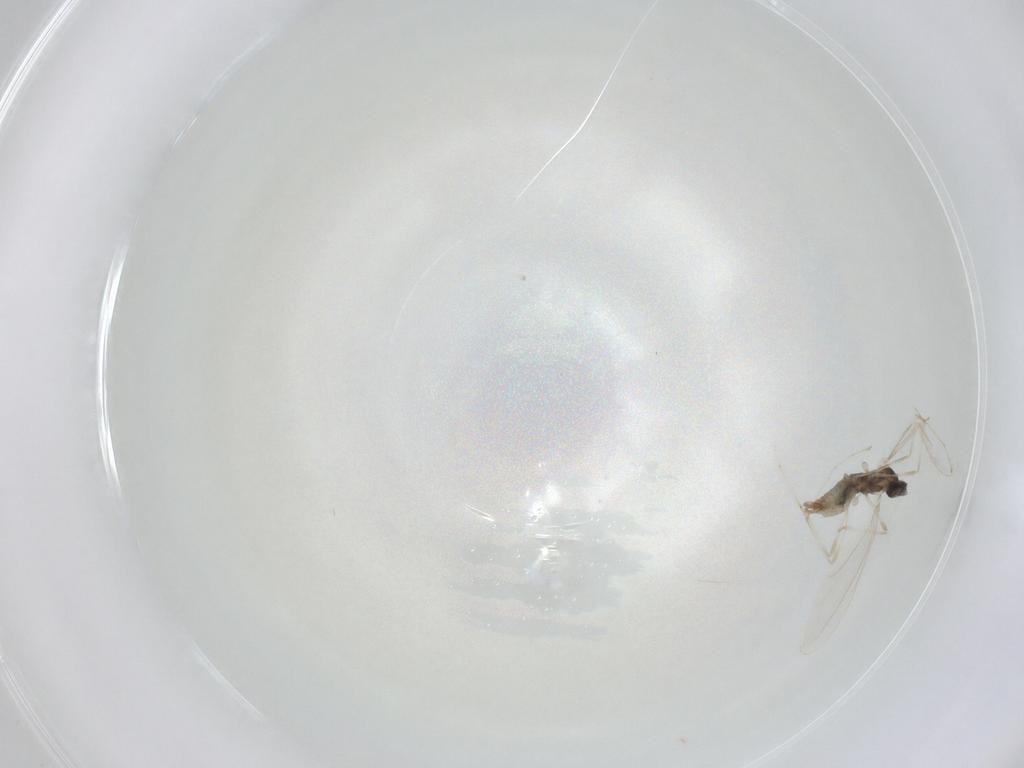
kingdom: Animalia
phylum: Arthropoda
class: Insecta
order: Diptera
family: Cecidomyiidae
